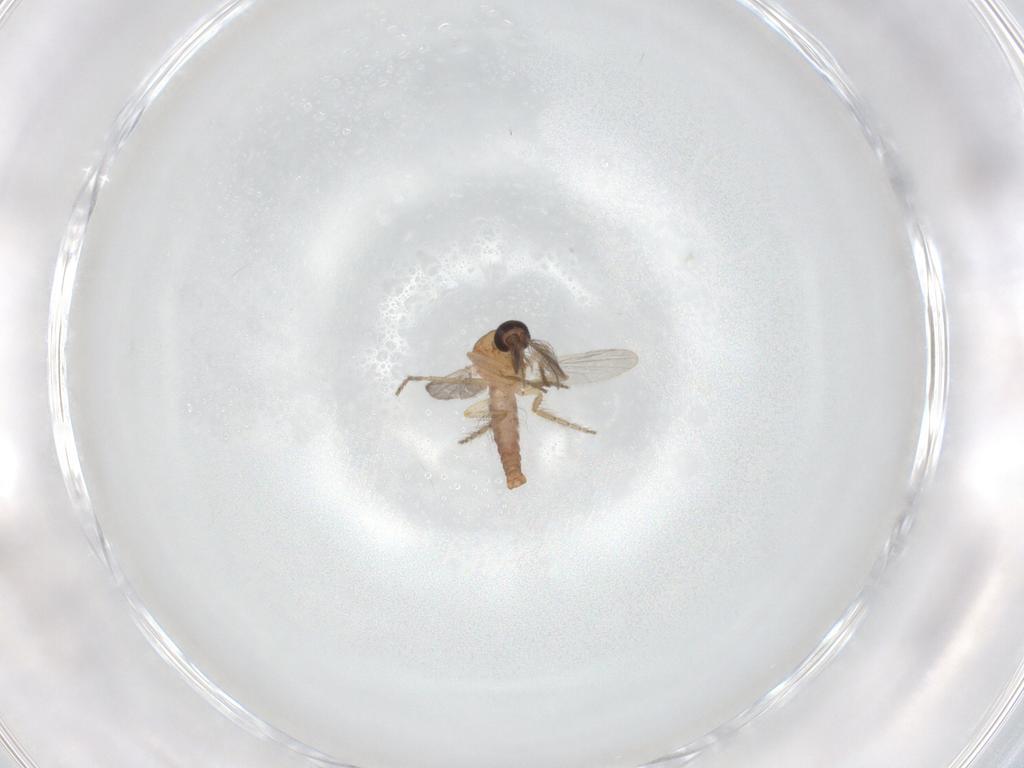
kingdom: Animalia
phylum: Arthropoda
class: Insecta
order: Diptera
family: Ceratopogonidae
